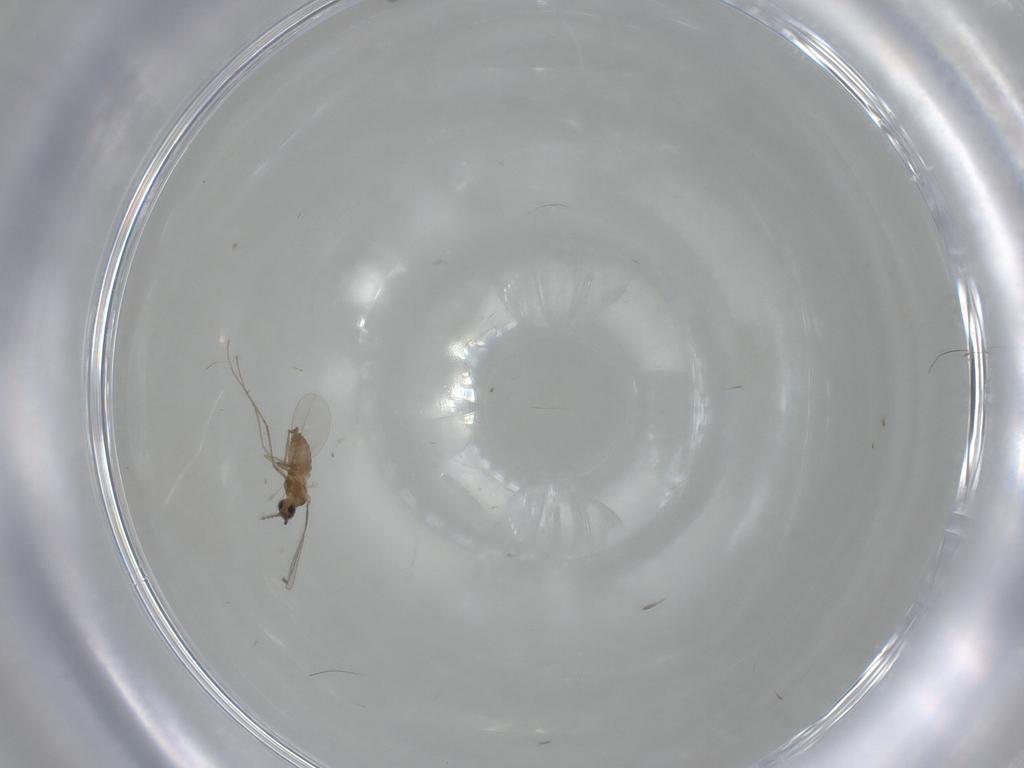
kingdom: Animalia
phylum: Arthropoda
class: Insecta
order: Diptera
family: Cecidomyiidae
